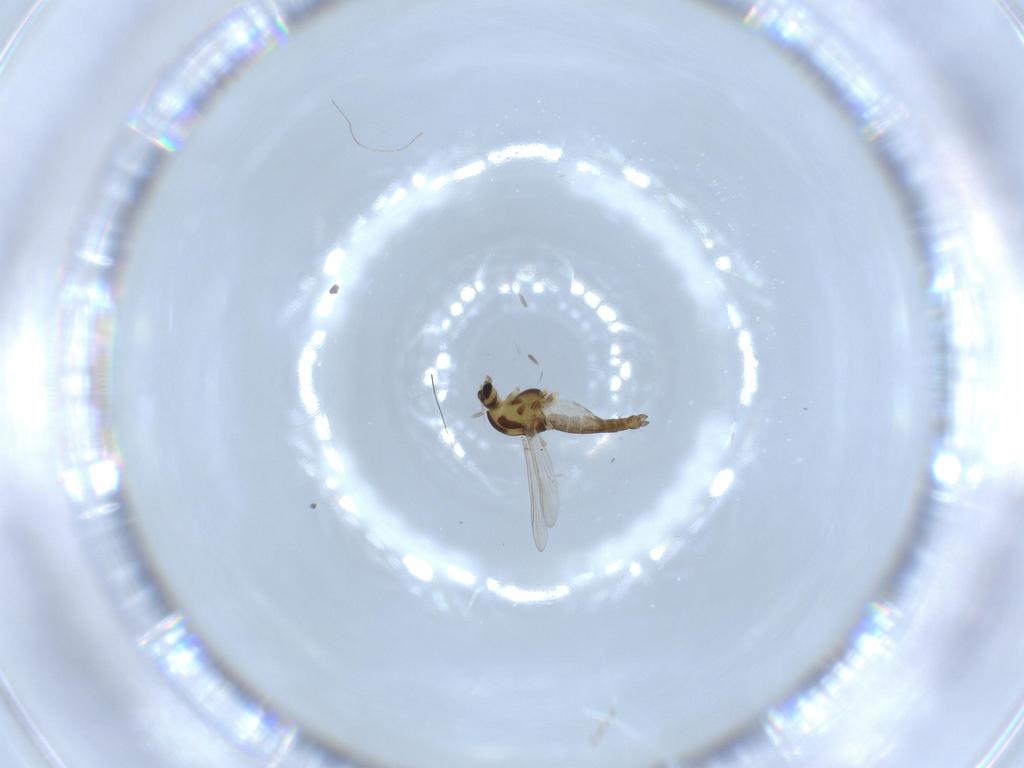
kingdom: Animalia
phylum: Arthropoda
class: Insecta
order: Diptera
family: Chironomidae
